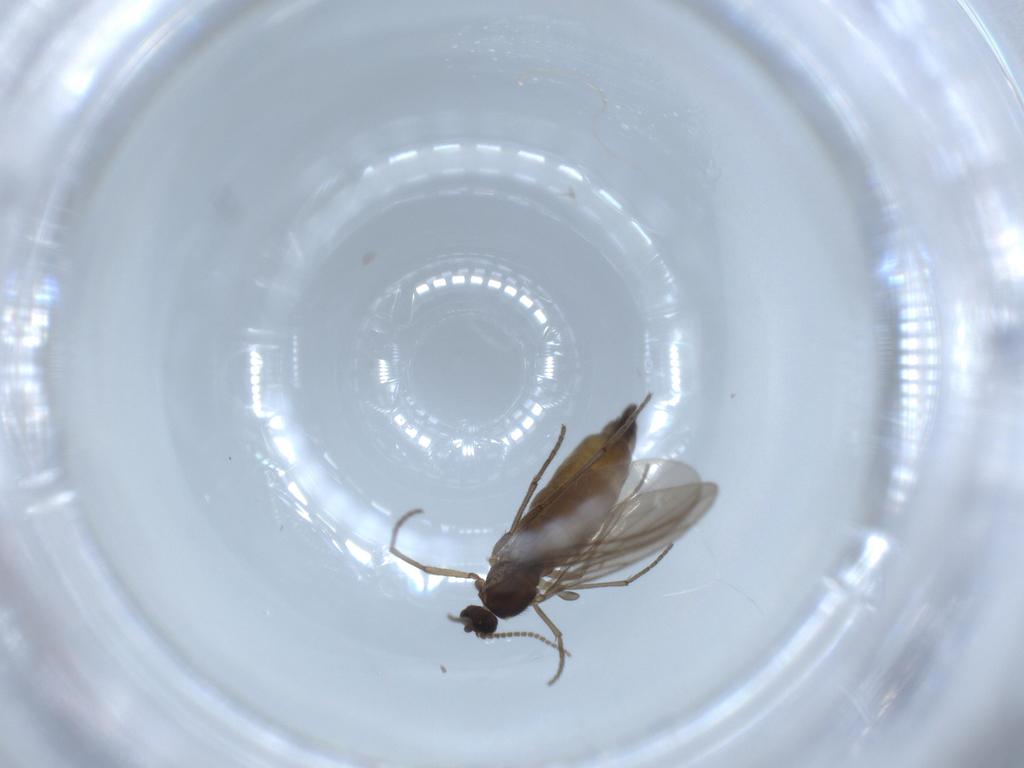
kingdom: Animalia
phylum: Arthropoda
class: Insecta
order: Diptera
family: Sciaridae
